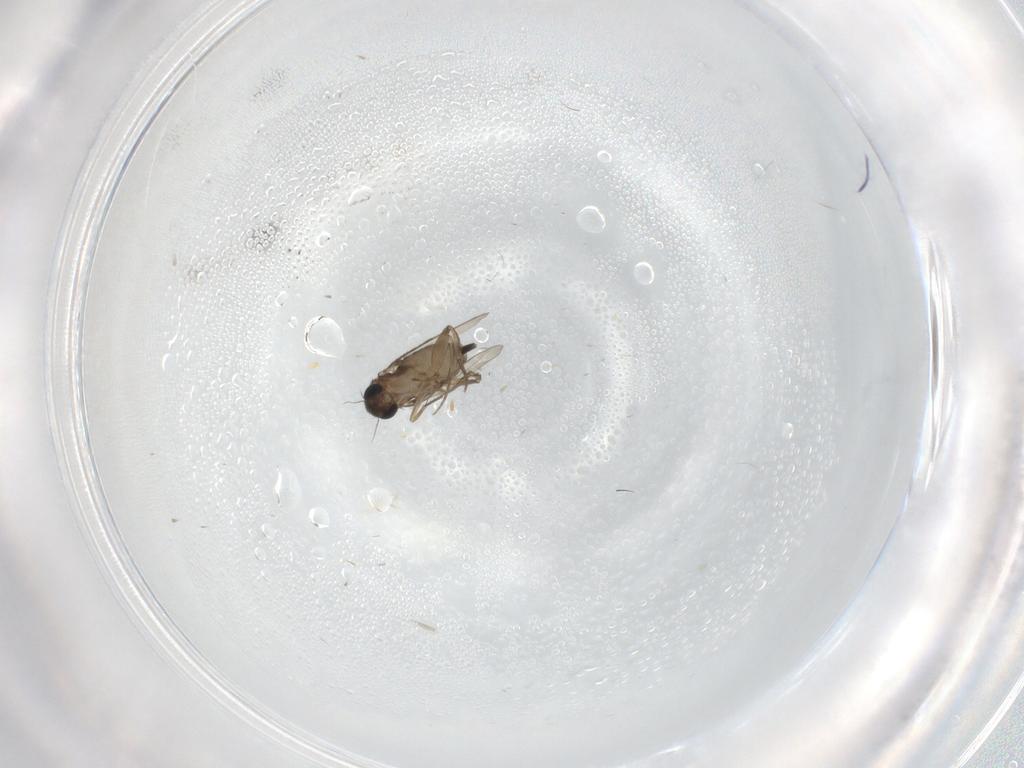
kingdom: Animalia
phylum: Arthropoda
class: Insecta
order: Diptera
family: Phoridae
